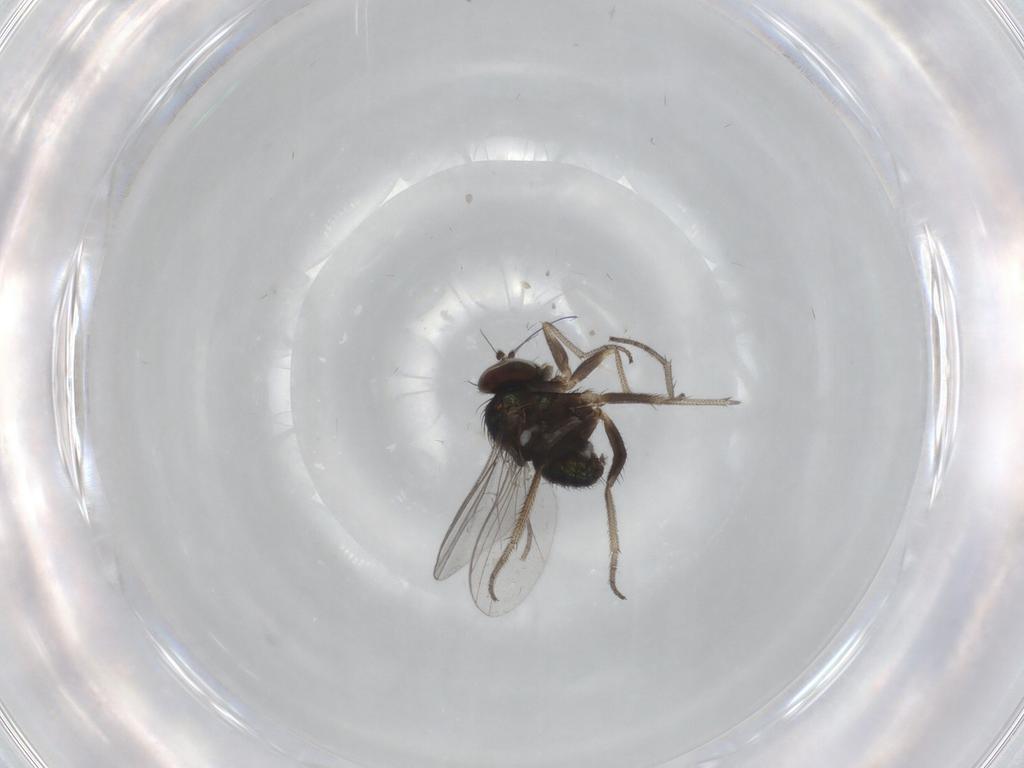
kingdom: Animalia
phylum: Arthropoda
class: Insecta
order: Diptera
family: Dolichopodidae
